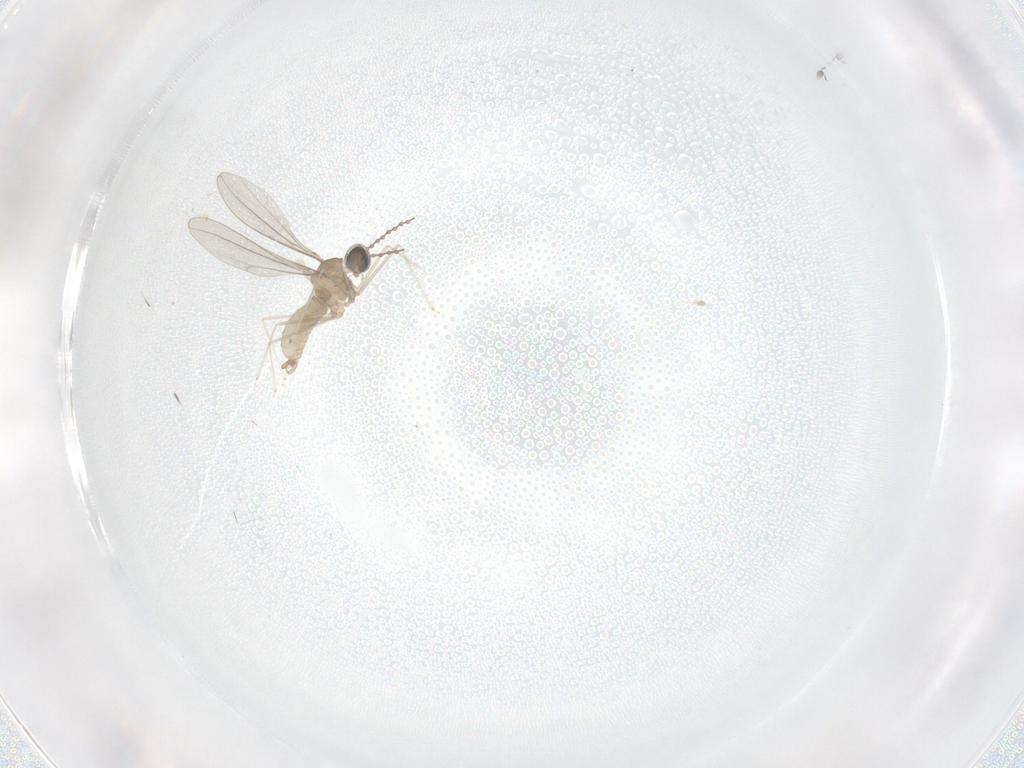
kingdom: Animalia
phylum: Arthropoda
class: Insecta
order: Diptera
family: Cecidomyiidae
